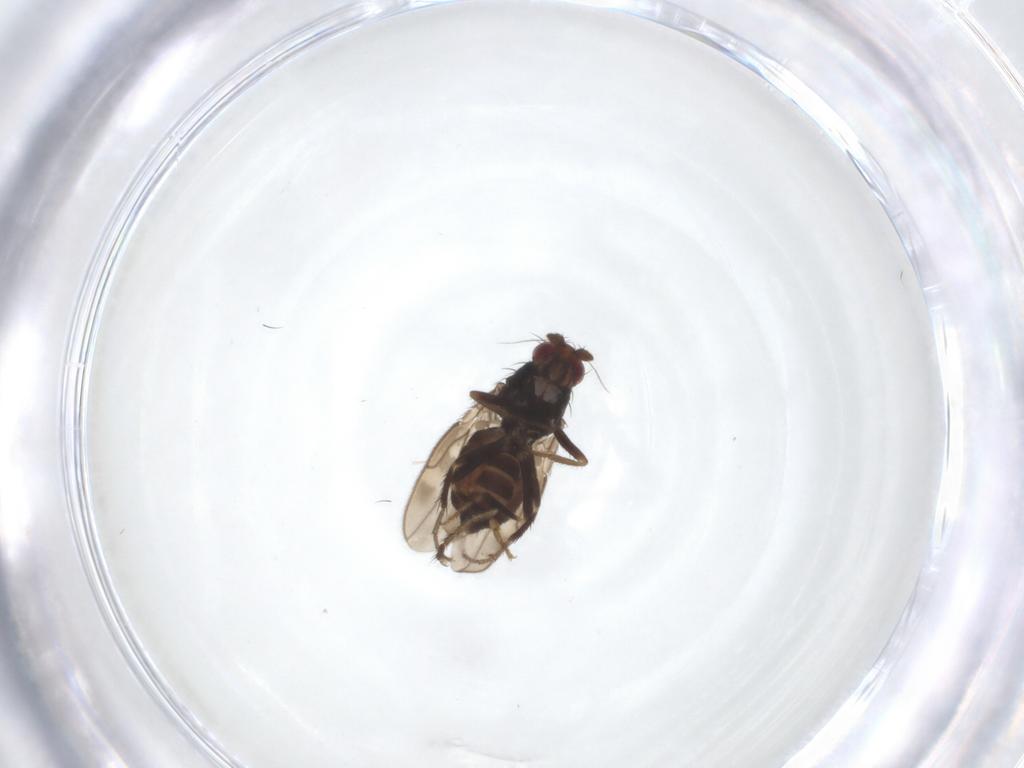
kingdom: Animalia
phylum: Arthropoda
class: Insecta
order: Diptera
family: Sphaeroceridae
